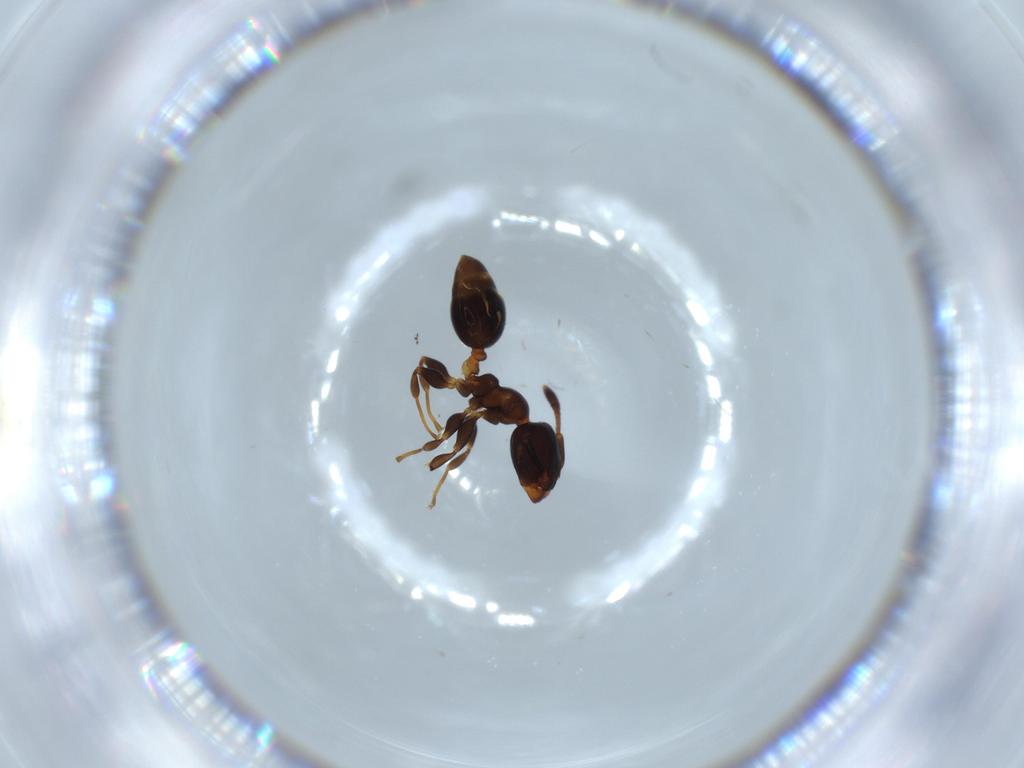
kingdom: Animalia
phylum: Arthropoda
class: Insecta
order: Hymenoptera
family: Formicidae
